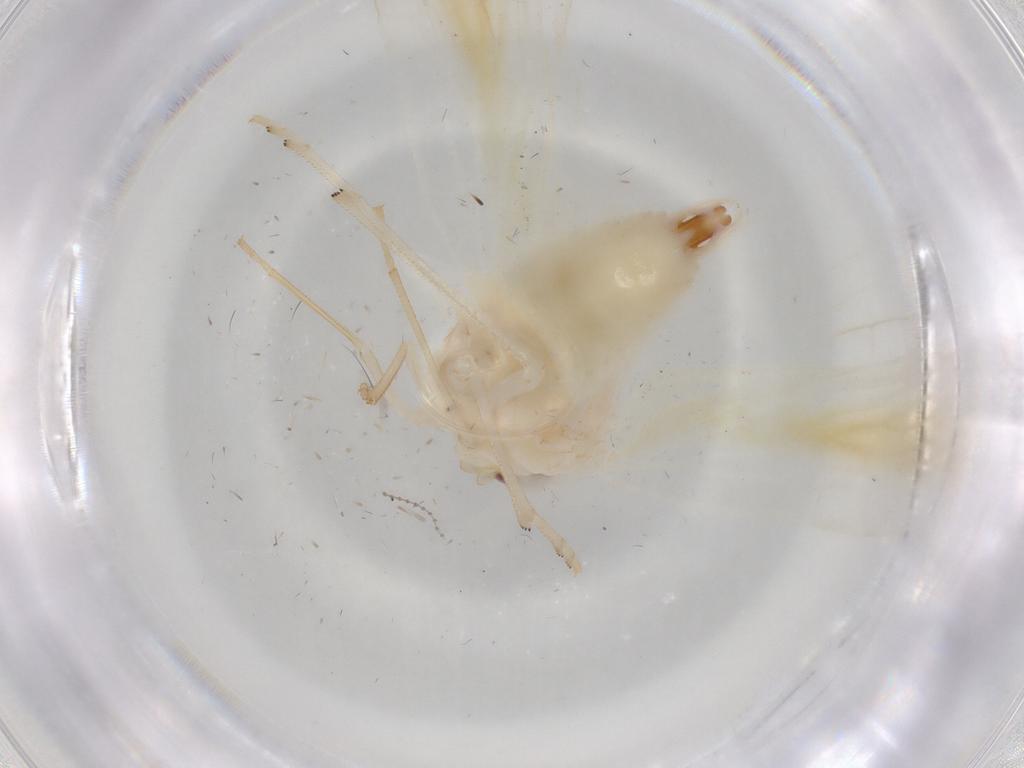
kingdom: Animalia
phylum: Arthropoda
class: Insecta
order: Hemiptera
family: Derbidae
